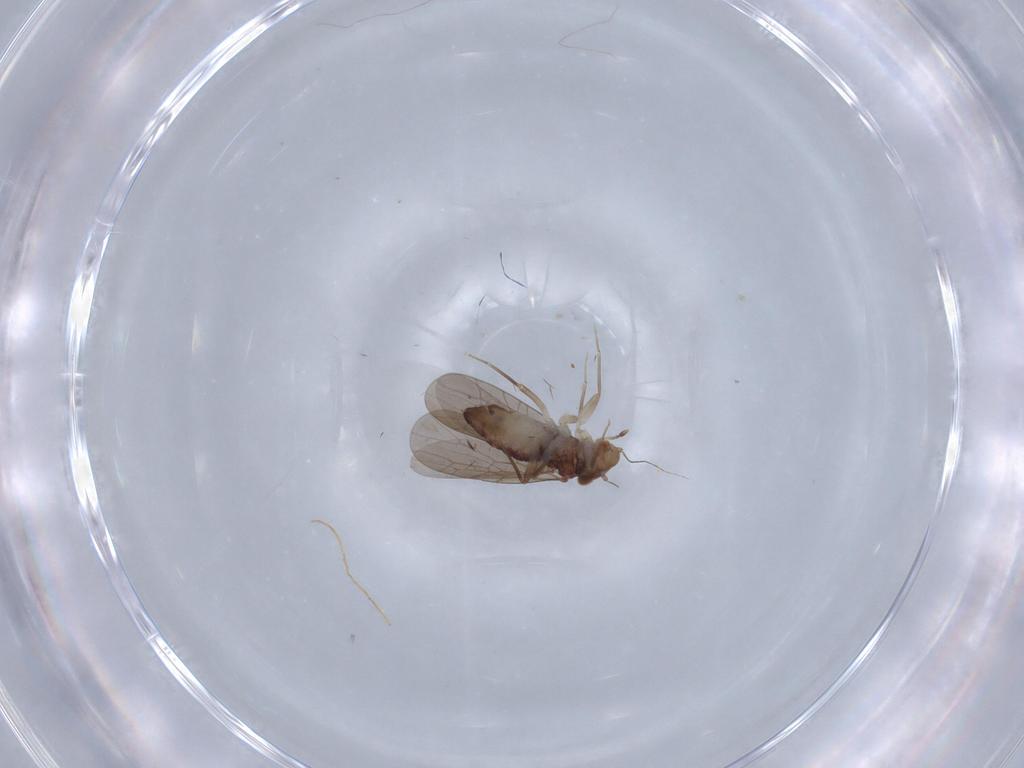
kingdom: Animalia
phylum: Arthropoda
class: Insecta
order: Psocodea
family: Lepidopsocidae
